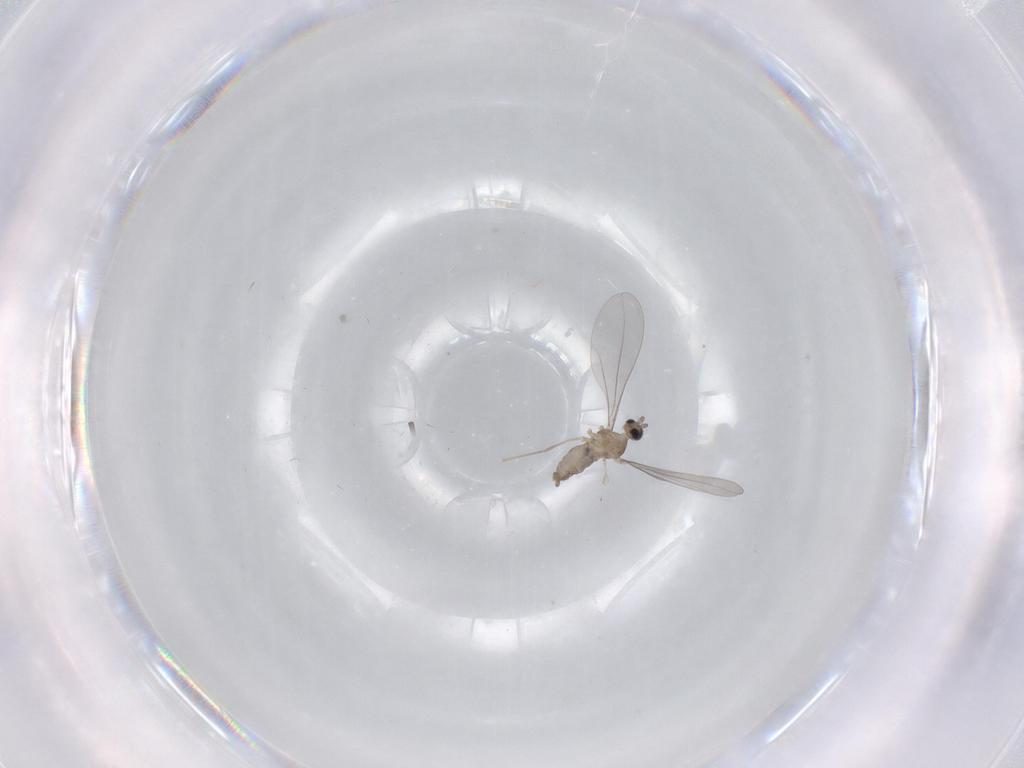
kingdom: Animalia
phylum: Arthropoda
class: Insecta
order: Diptera
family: Cecidomyiidae
